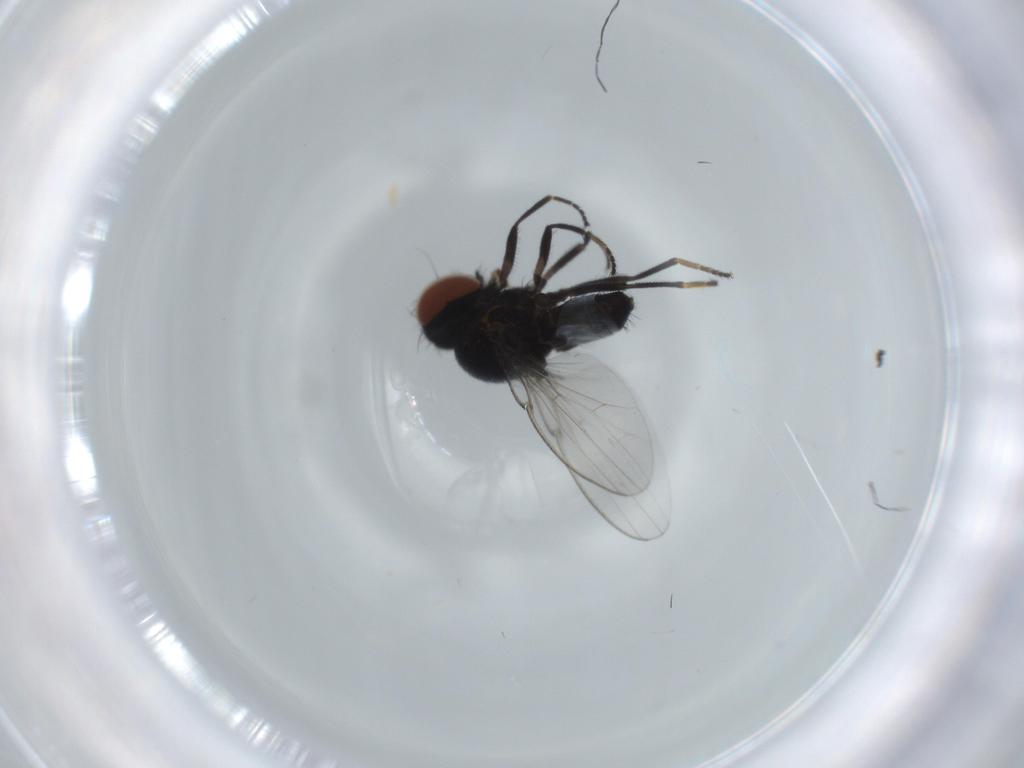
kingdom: Animalia
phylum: Arthropoda
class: Insecta
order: Diptera
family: Milichiidae
